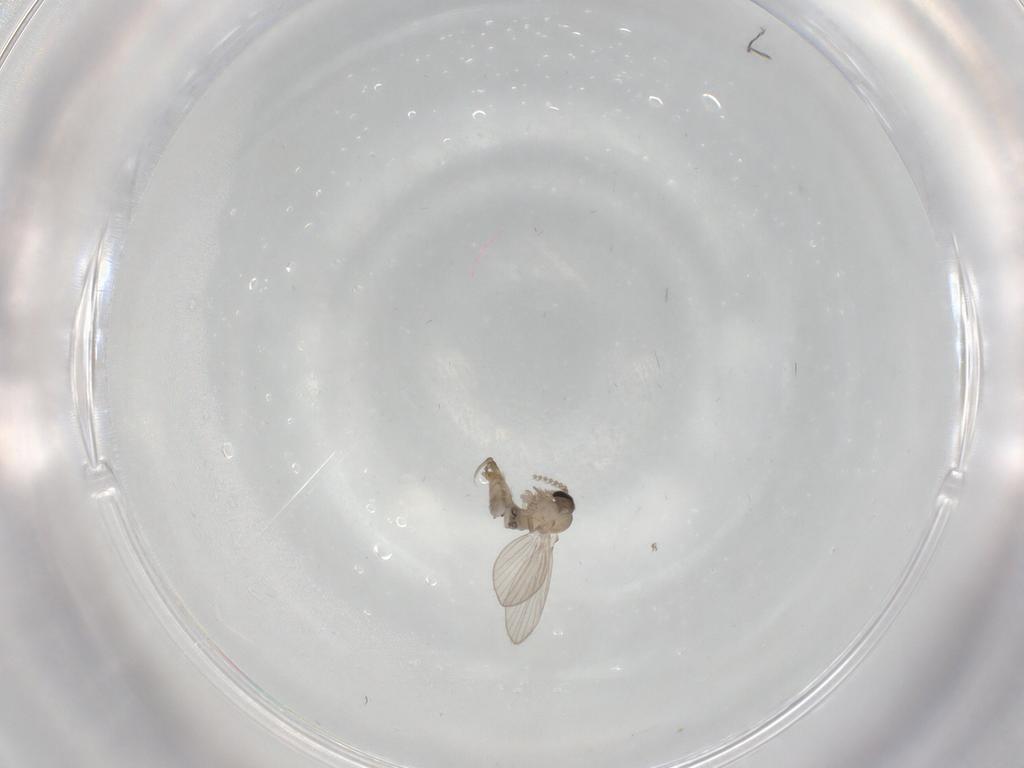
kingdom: Animalia
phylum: Arthropoda
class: Insecta
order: Diptera
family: Psychodidae
